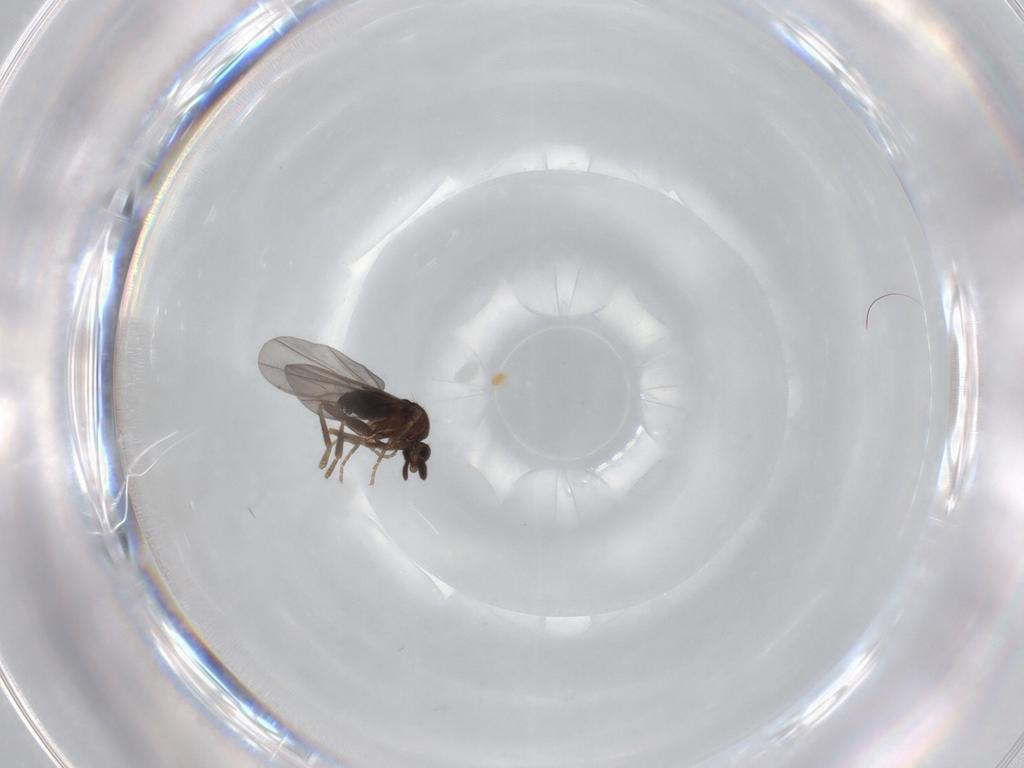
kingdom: Animalia
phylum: Arthropoda
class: Insecta
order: Diptera
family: Phoridae
